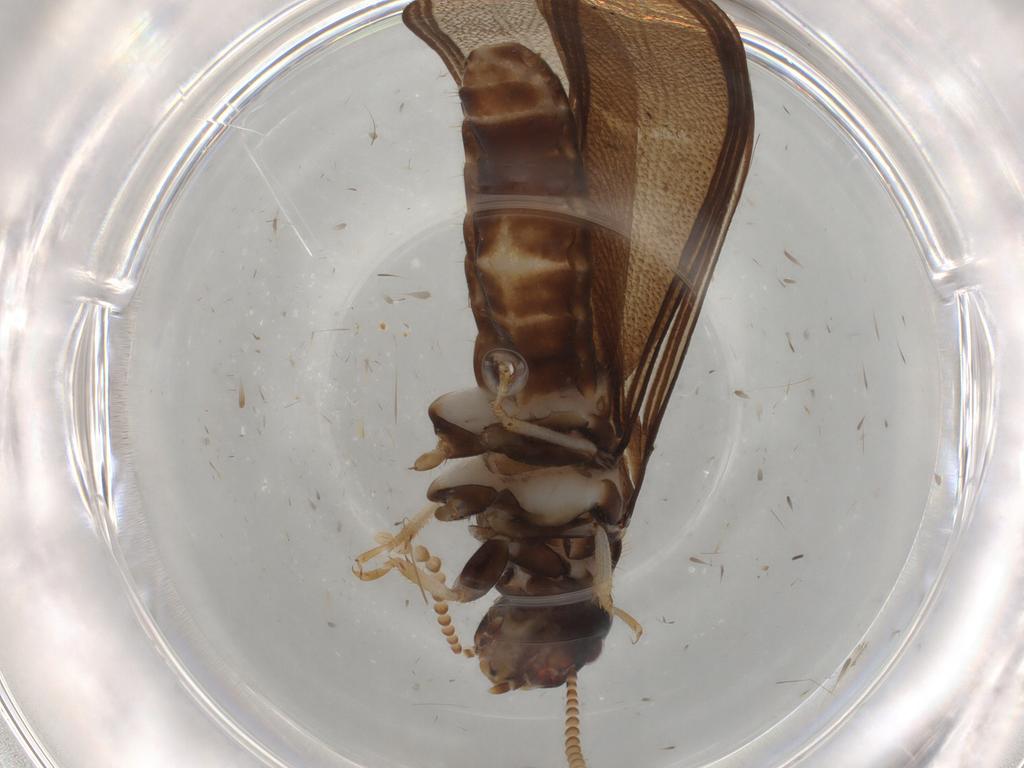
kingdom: Animalia
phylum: Arthropoda
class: Insecta
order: Blattodea
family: Kalotermitidae
